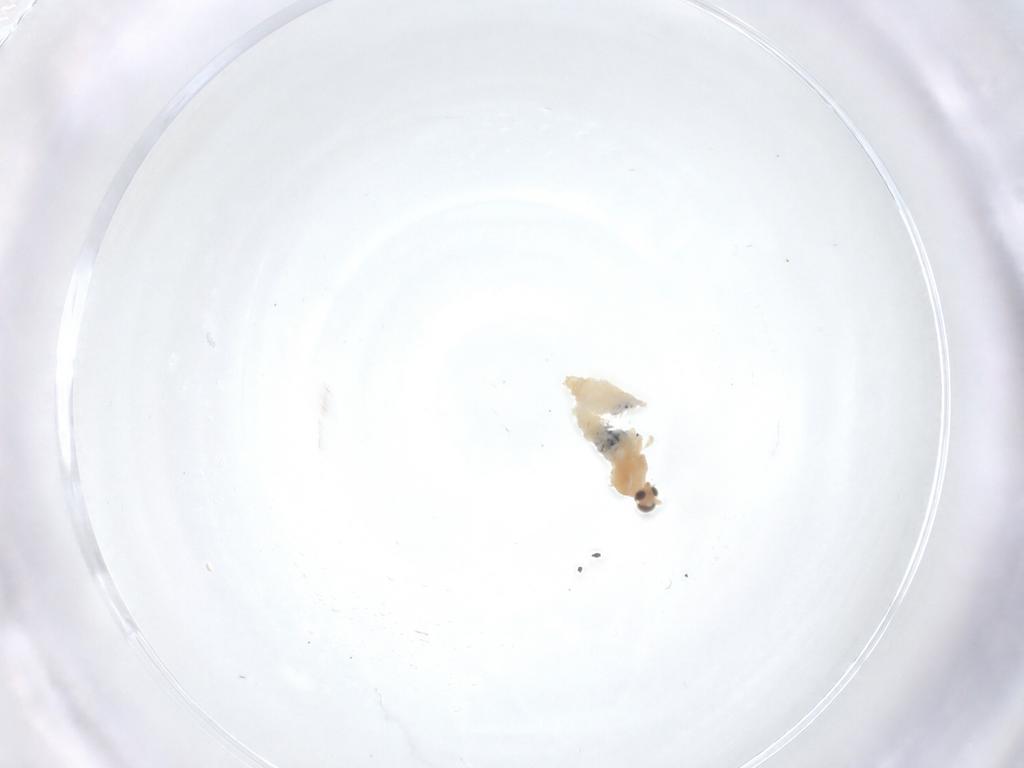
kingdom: Animalia
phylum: Arthropoda
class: Insecta
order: Diptera
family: Cecidomyiidae
